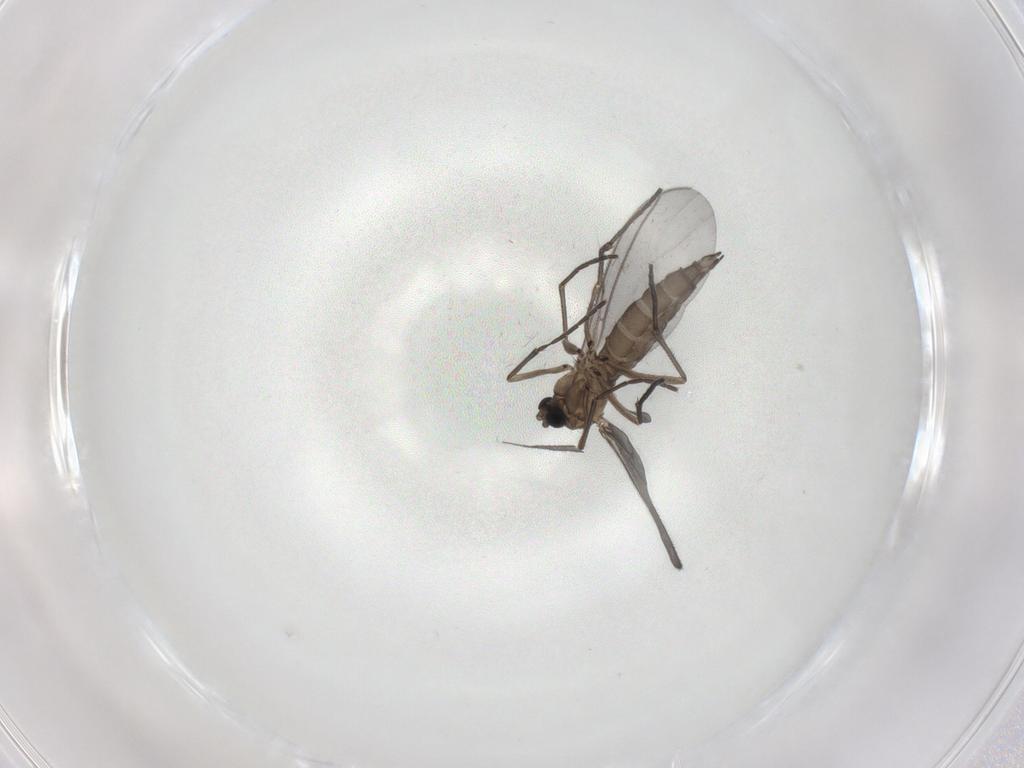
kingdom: Animalia
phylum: Arthropoda
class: Insecta
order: Diptera
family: Sciaridae
